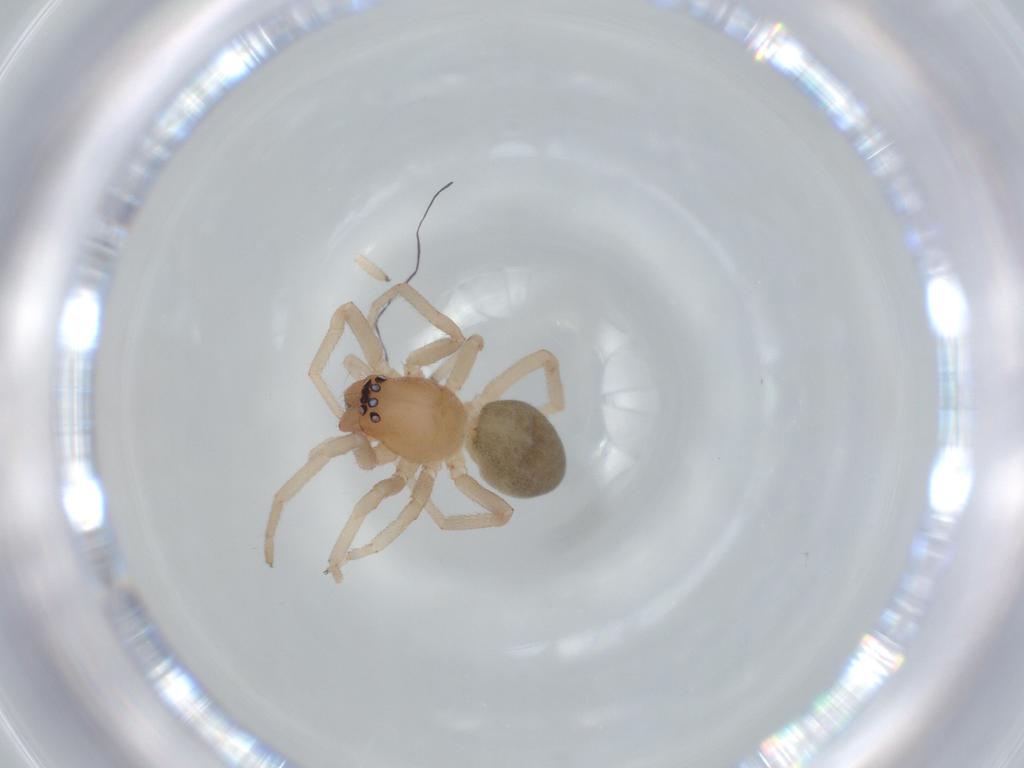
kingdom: Animalia
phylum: Arthropoda
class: Arachnida
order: Araneae
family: Trachelidae
